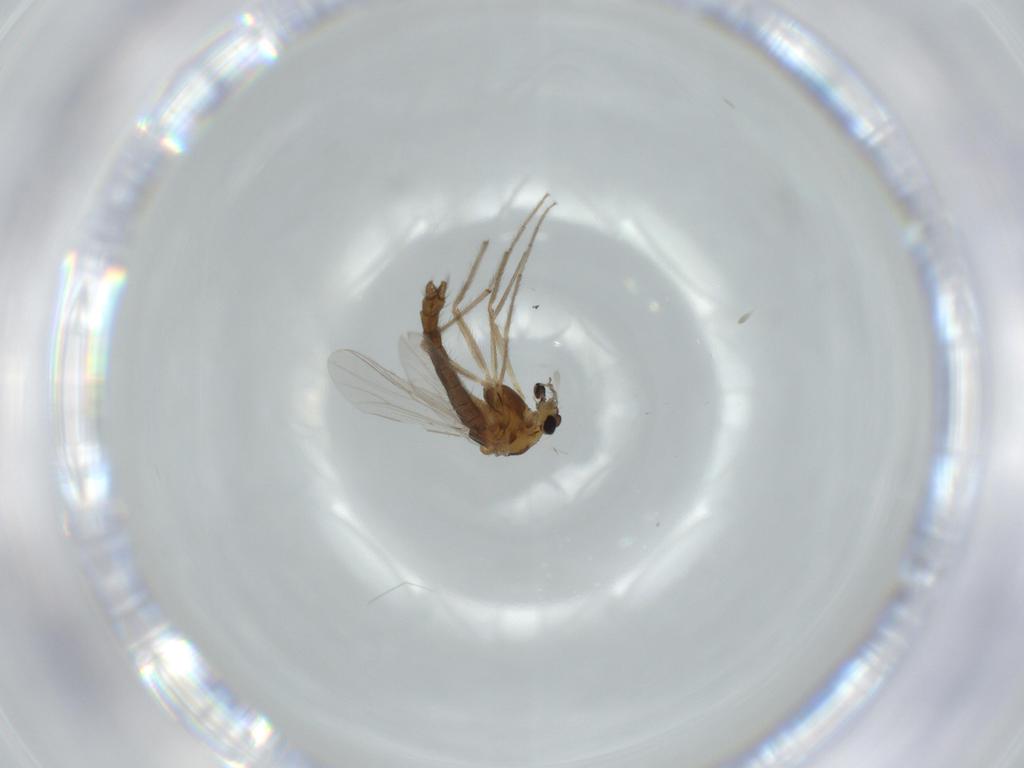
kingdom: Animalia
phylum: Arthropoda
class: Insecta
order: Diptera
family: Chironomidae
